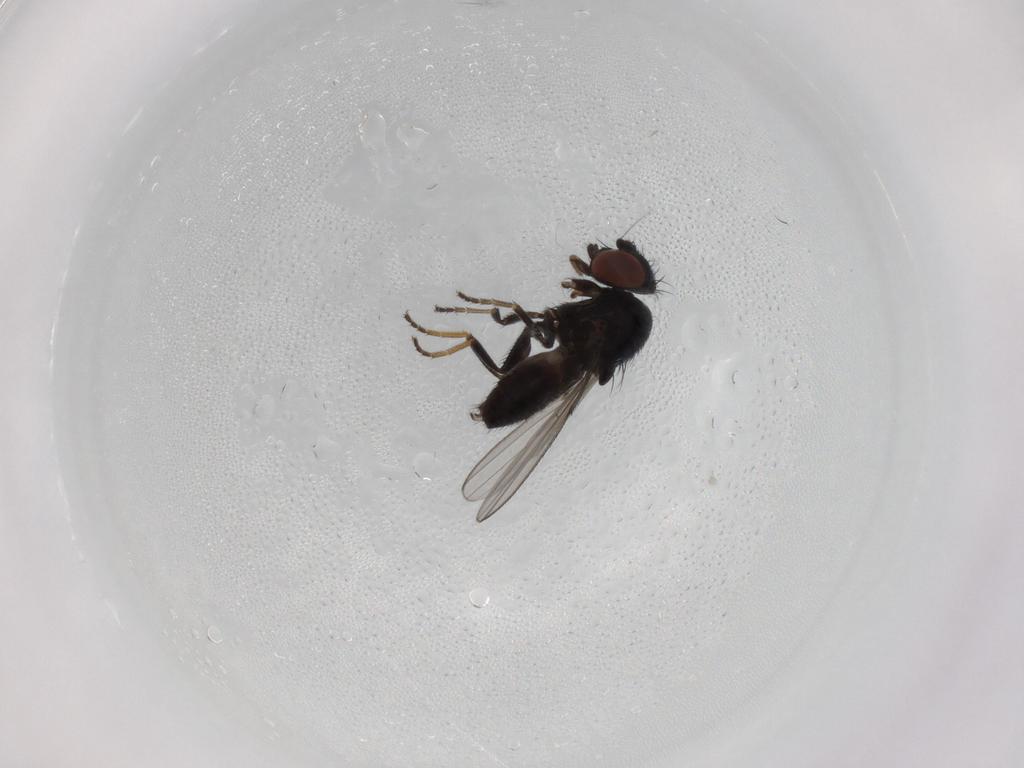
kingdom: Animalia
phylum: Arthropoda
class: Insecta
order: Diptera
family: Milichiidae
